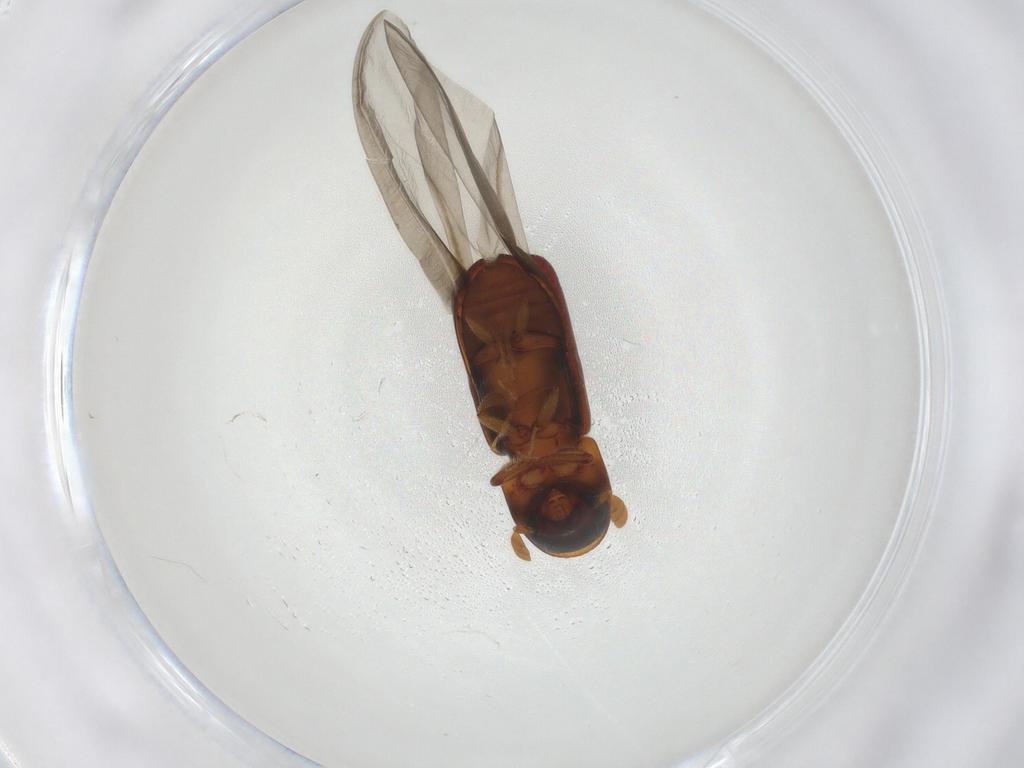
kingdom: Animalia
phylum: Arthropoda
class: Insecta
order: Coleoptera
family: Curculionidae
